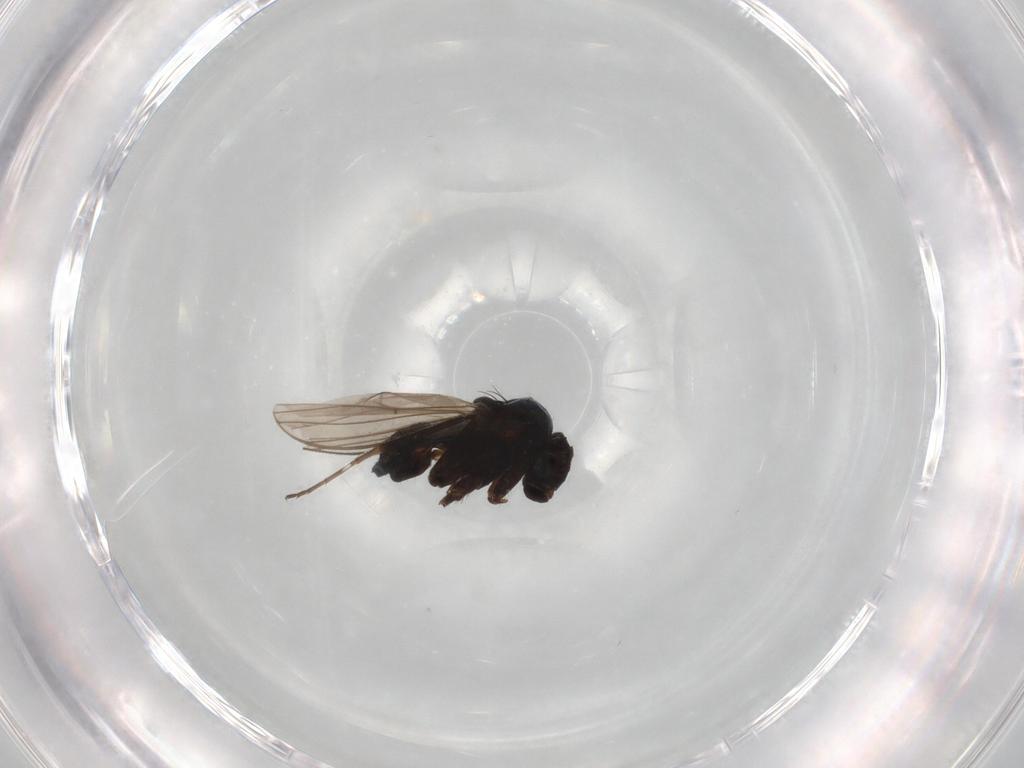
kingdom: Animalia
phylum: Arthropoda
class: Insecta
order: Diptera
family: Dolichopodidae
